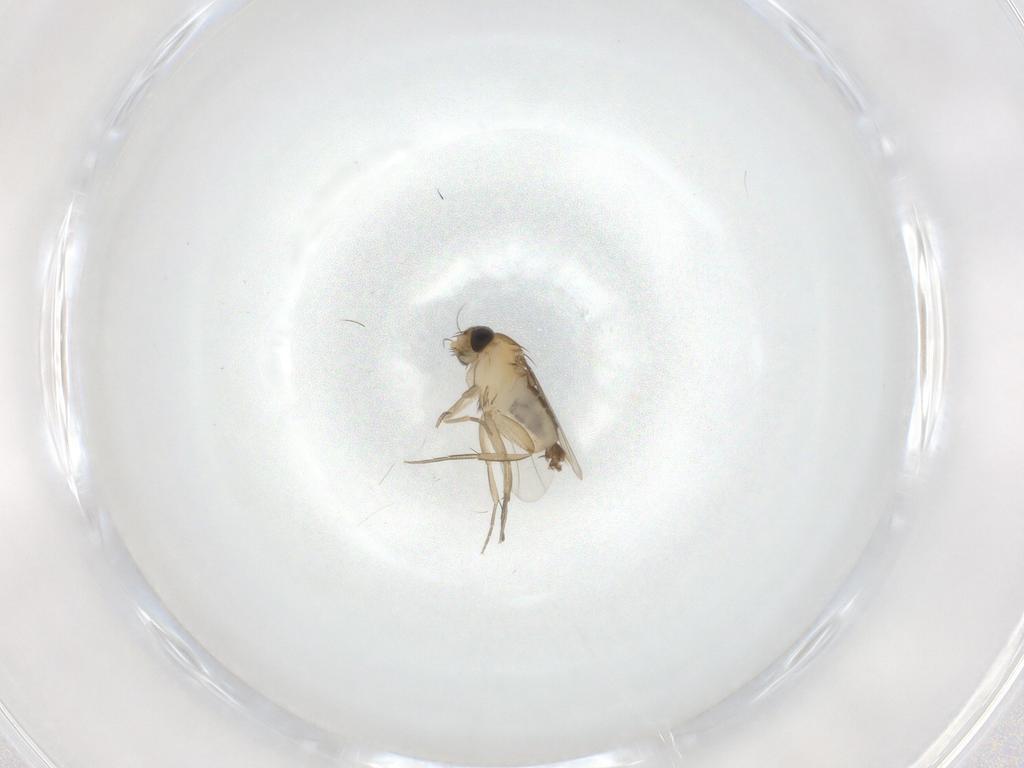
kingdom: Animalia
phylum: Arthropoda
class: Insecta
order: Diptera
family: Phoridae
